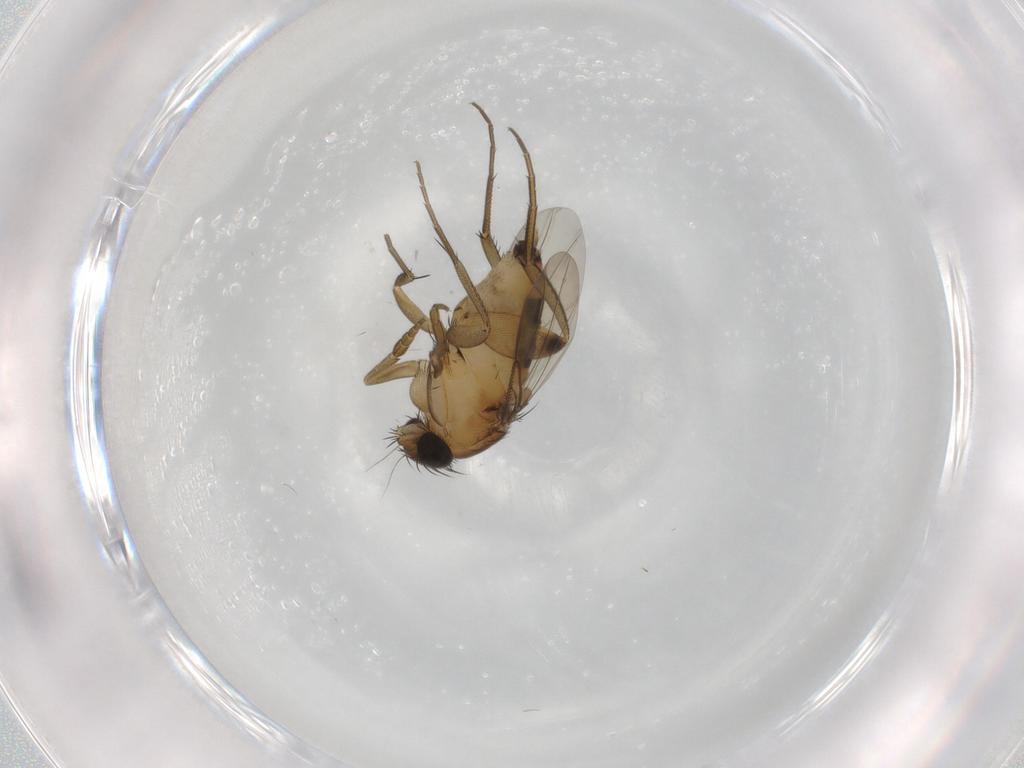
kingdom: Animalia
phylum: Arthropoda
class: Insecta
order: Diptera
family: Phoridae
